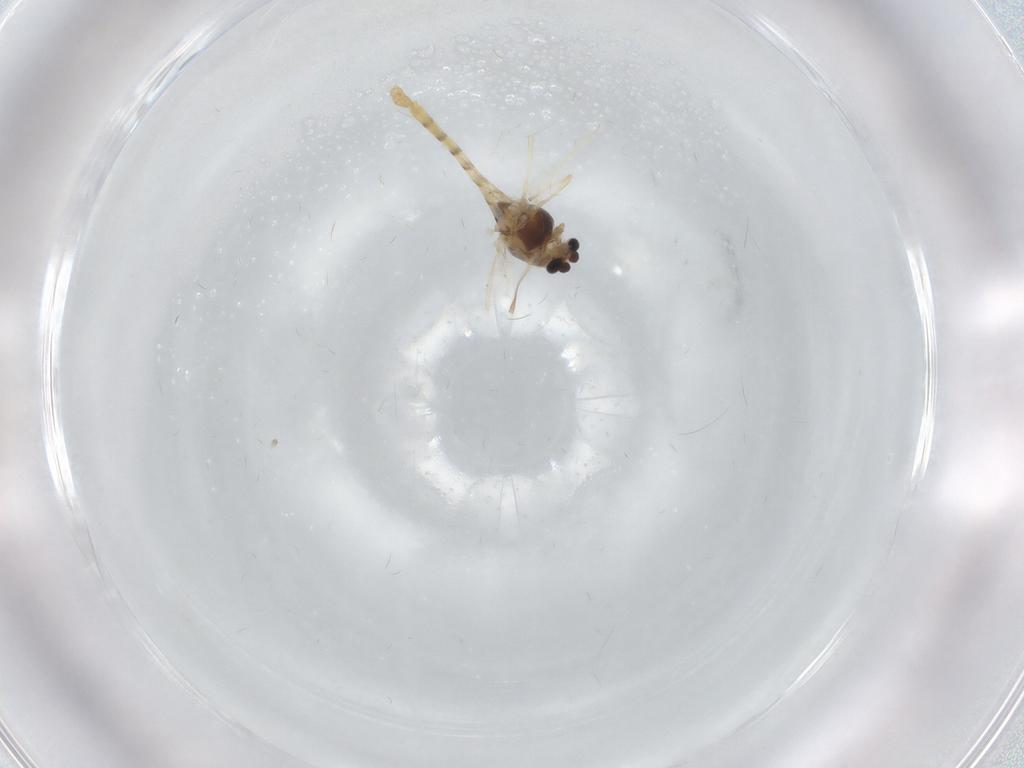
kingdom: Animalia
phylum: Arthropoda
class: Insecta
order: Diptera
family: Chironomidae
